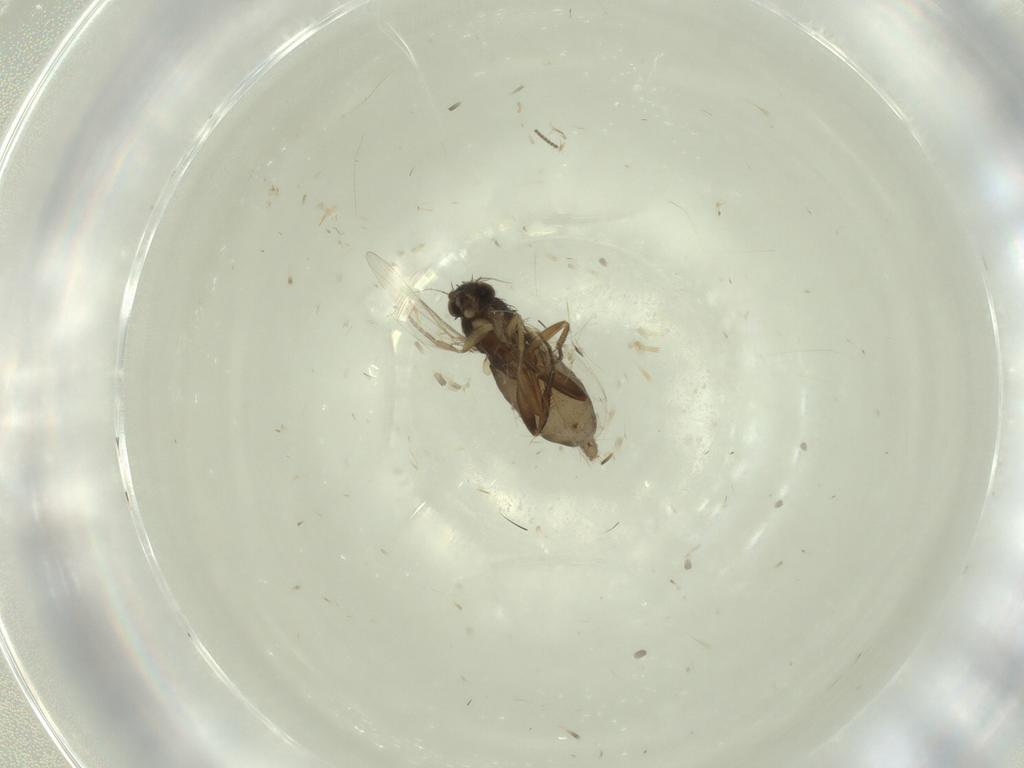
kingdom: Animalia
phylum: Arthropoda
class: Insecta
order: Diptera
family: Phoridae
